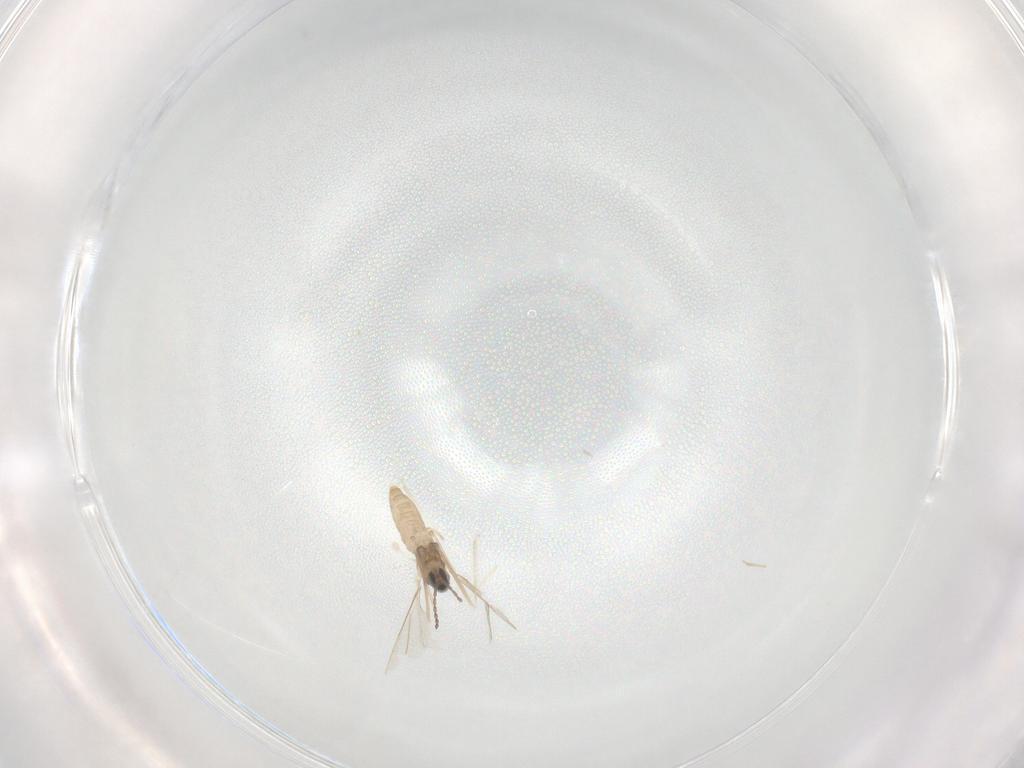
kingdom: Animalia
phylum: Arthropoda
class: Insecta
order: Diptera
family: Cecidomyiidae
